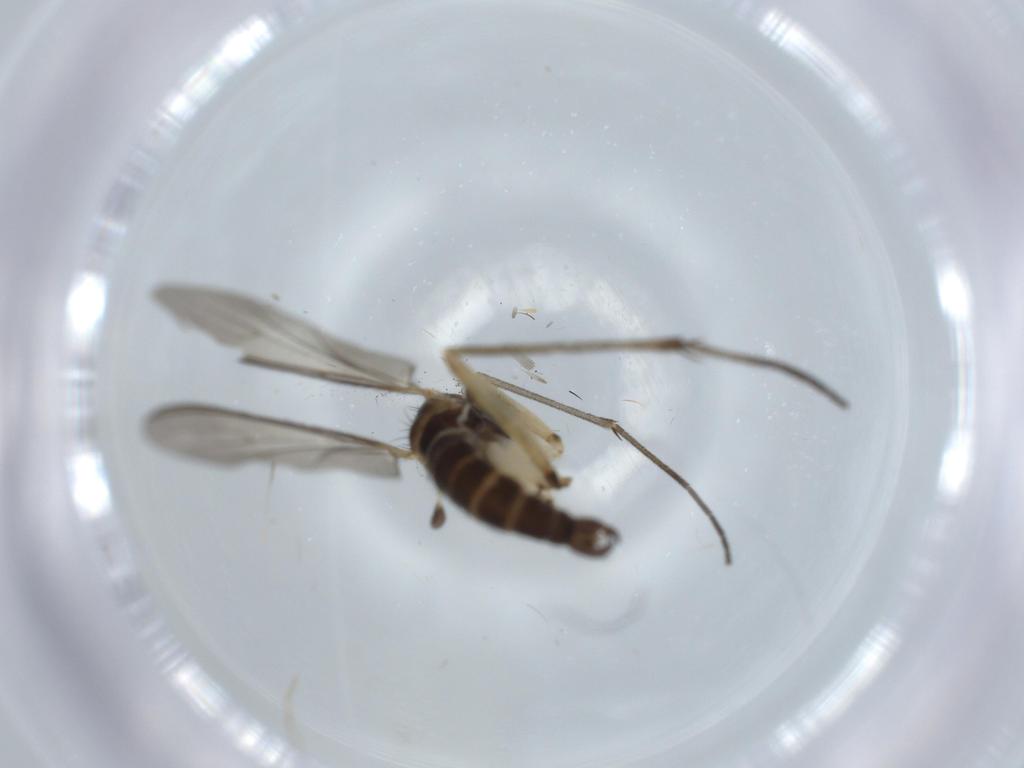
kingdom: Animalia
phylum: Arthropoda
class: Insecta
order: Diptera
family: Sciaridae
